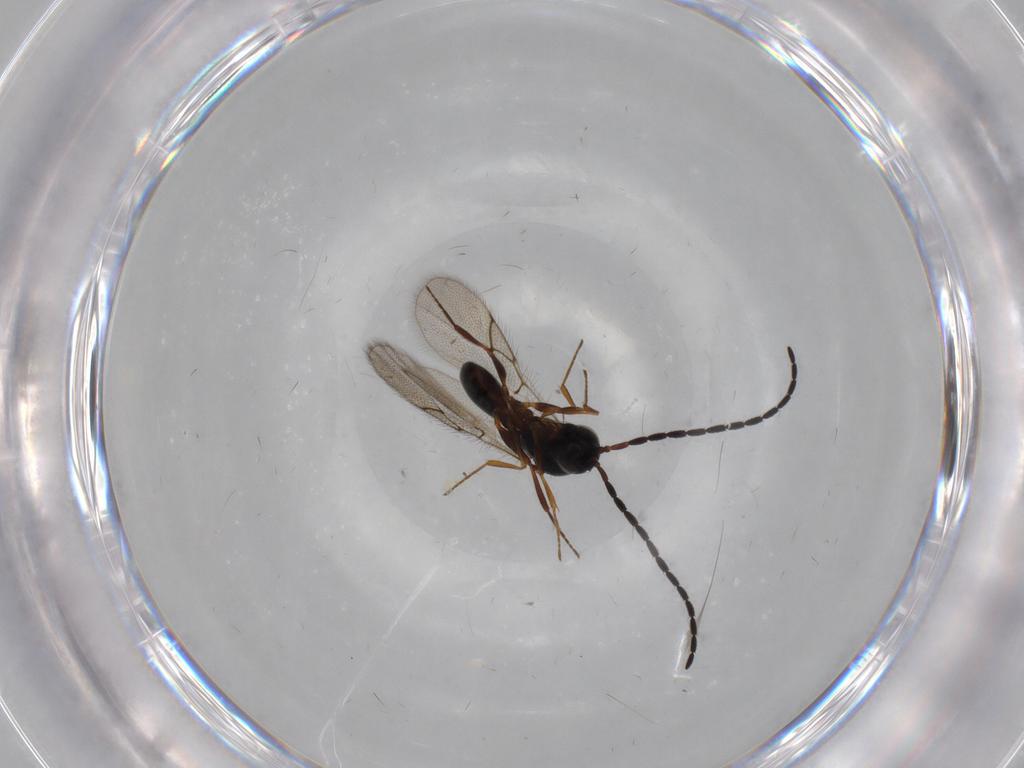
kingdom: Animalia
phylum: Arthropoda
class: Insecta
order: Hymenoptera
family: Figitidae
